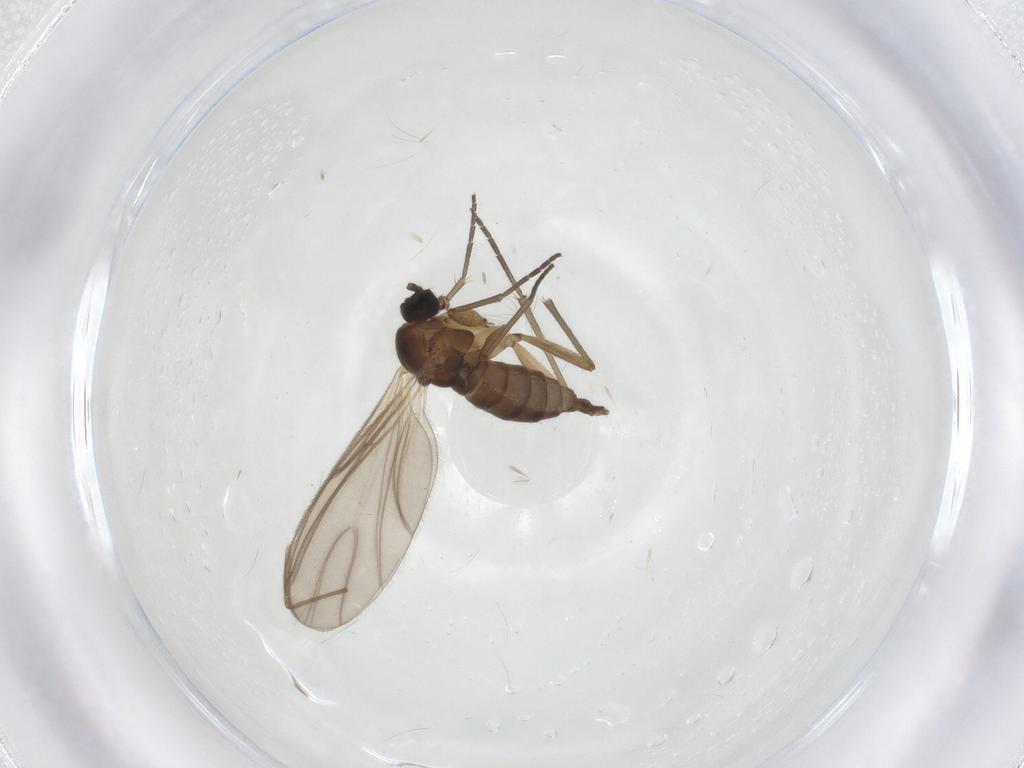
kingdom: Animalia
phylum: Arthropoda
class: Insecta
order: Diptera
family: Sciaridae
